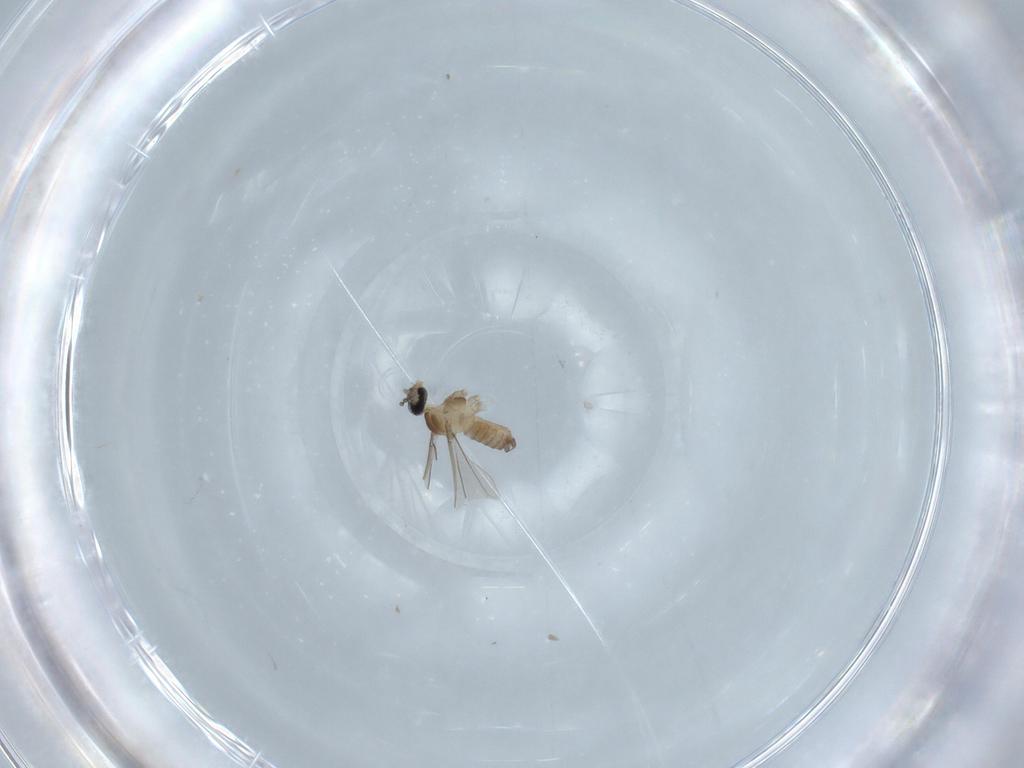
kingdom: Animalia
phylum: Arthropoda
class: Insecta
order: Diptera
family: Cecidomyiidae
